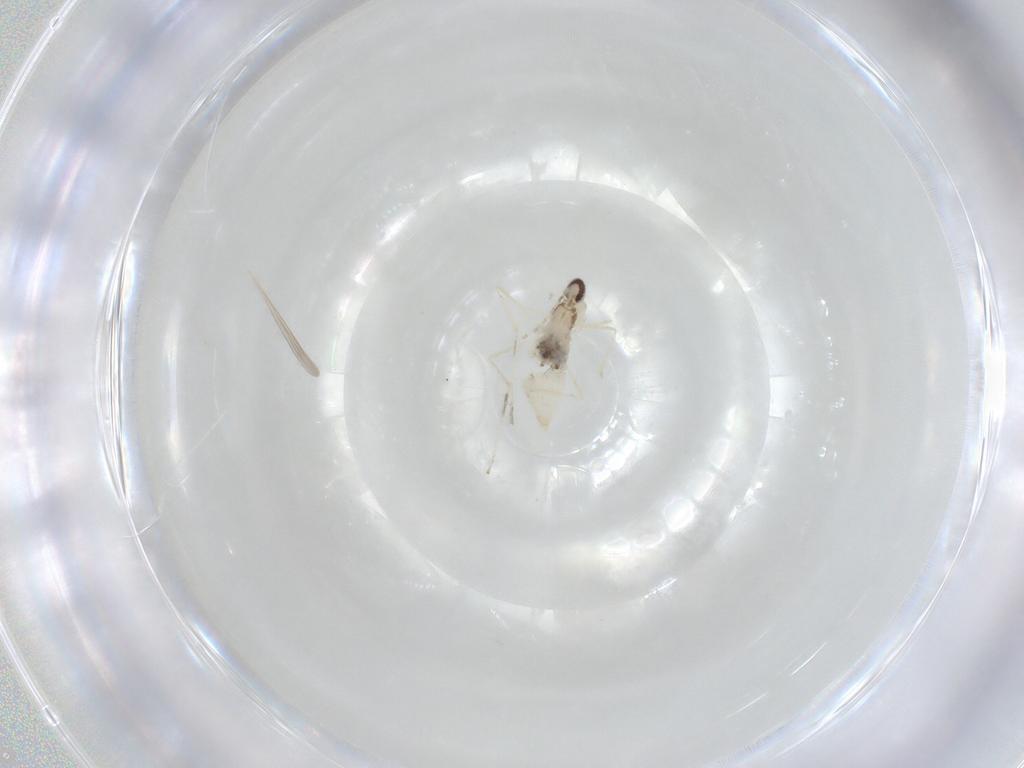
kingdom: Animalia
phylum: Arthropoda
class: Insecta
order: Diptera
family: Cecidomyiidae
